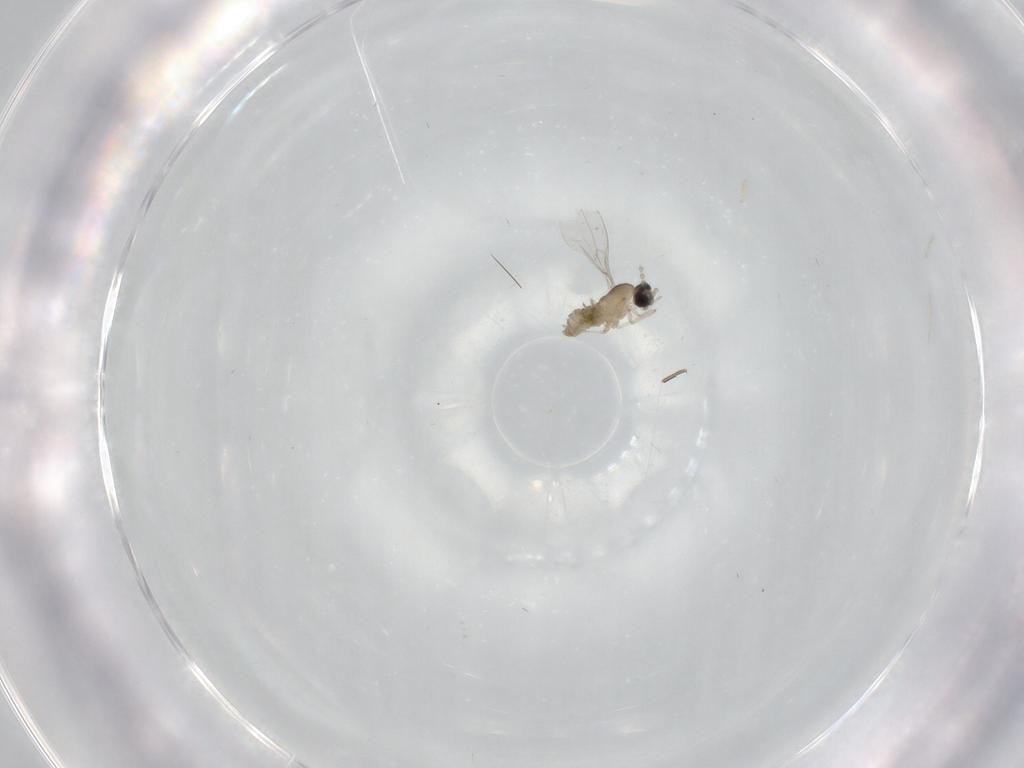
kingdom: Animalia
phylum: Arthropoda
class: Insecta
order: Diptera
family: Cecidomyiidae
